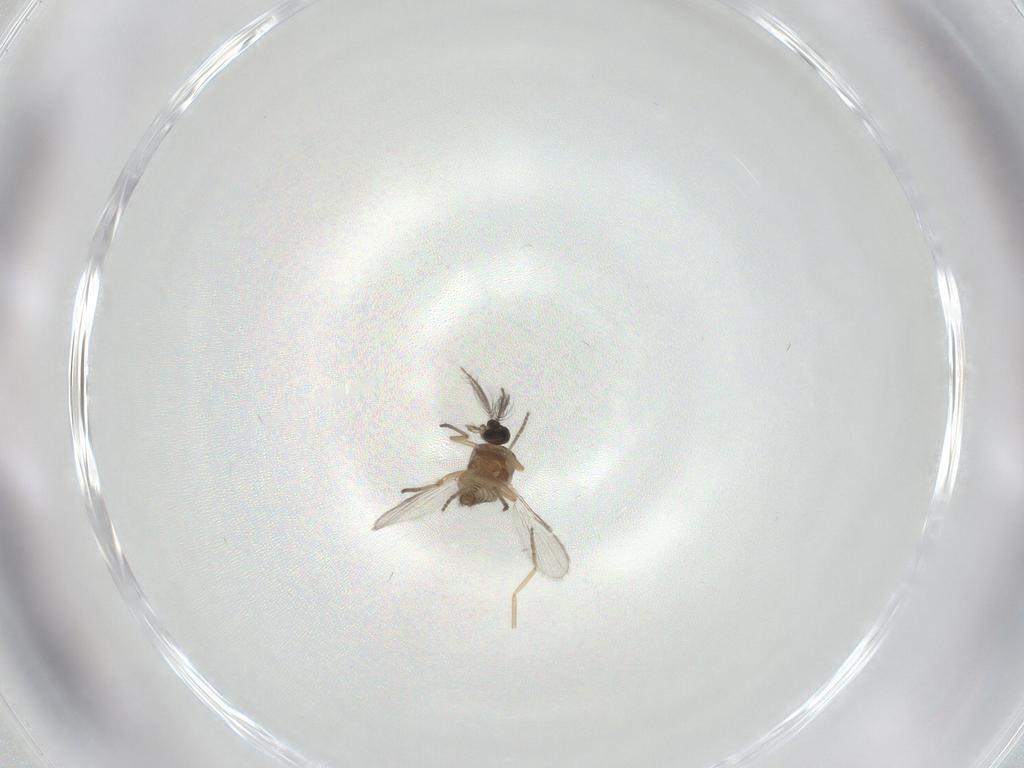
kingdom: Animalia
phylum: Arthropoda
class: Insecta
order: Diptera
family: Ceratopogonidae
